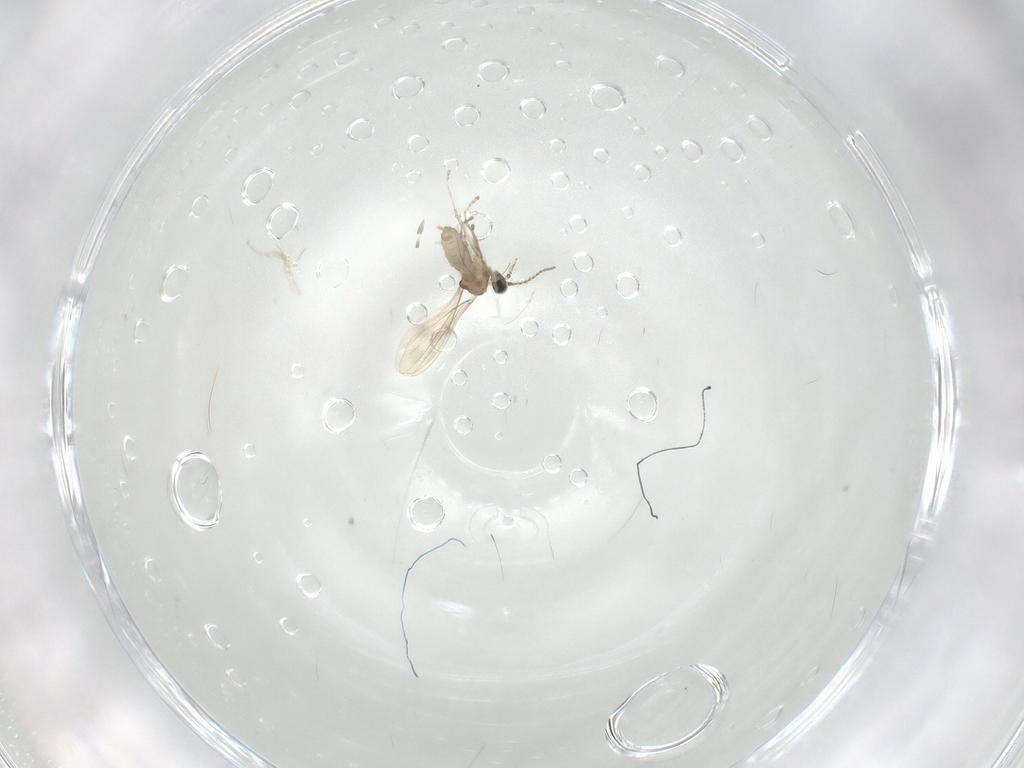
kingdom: Animalia
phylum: Arthropoda
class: Insecta
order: Diptera
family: Cecidomyiidae
